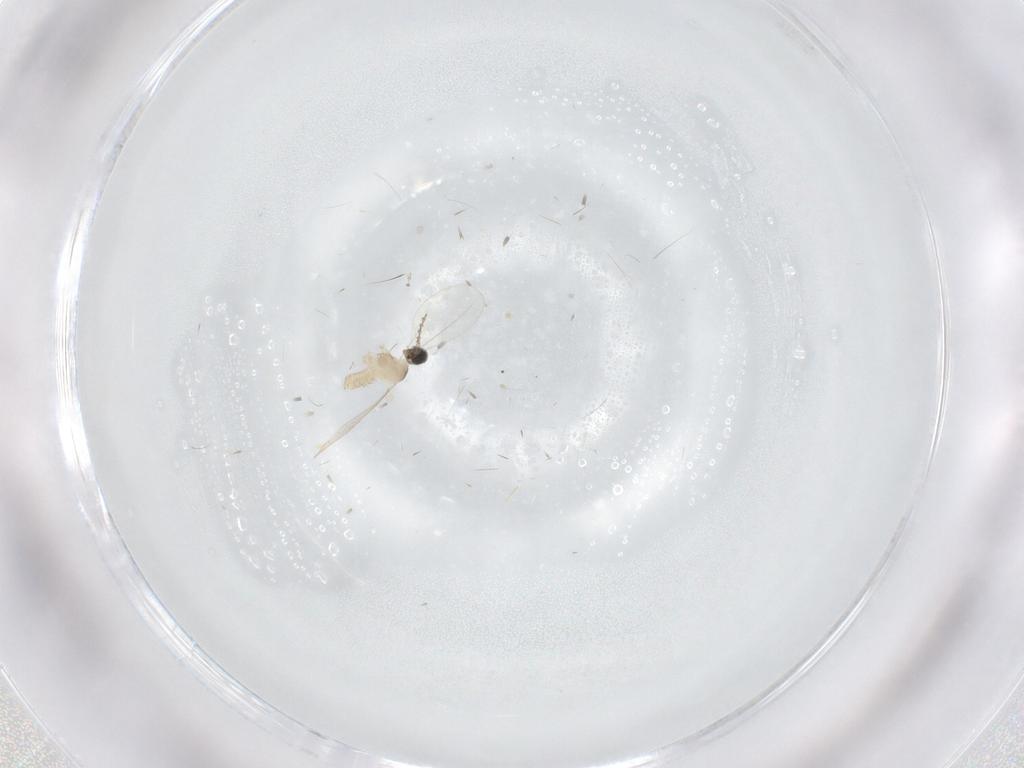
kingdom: Animalia
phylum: Arthropoda
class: Insecta
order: Diptera
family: Cecidomyiidae
